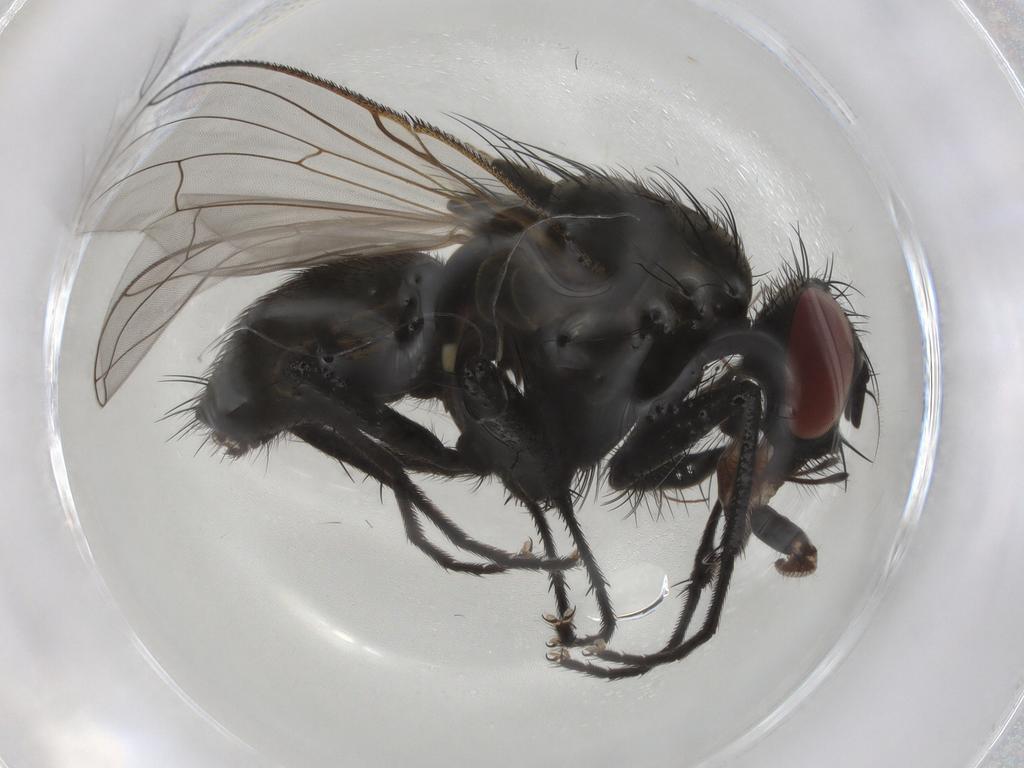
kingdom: Animalia
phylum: Arthropoda
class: Insecta
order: Diptera
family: Muscidae
